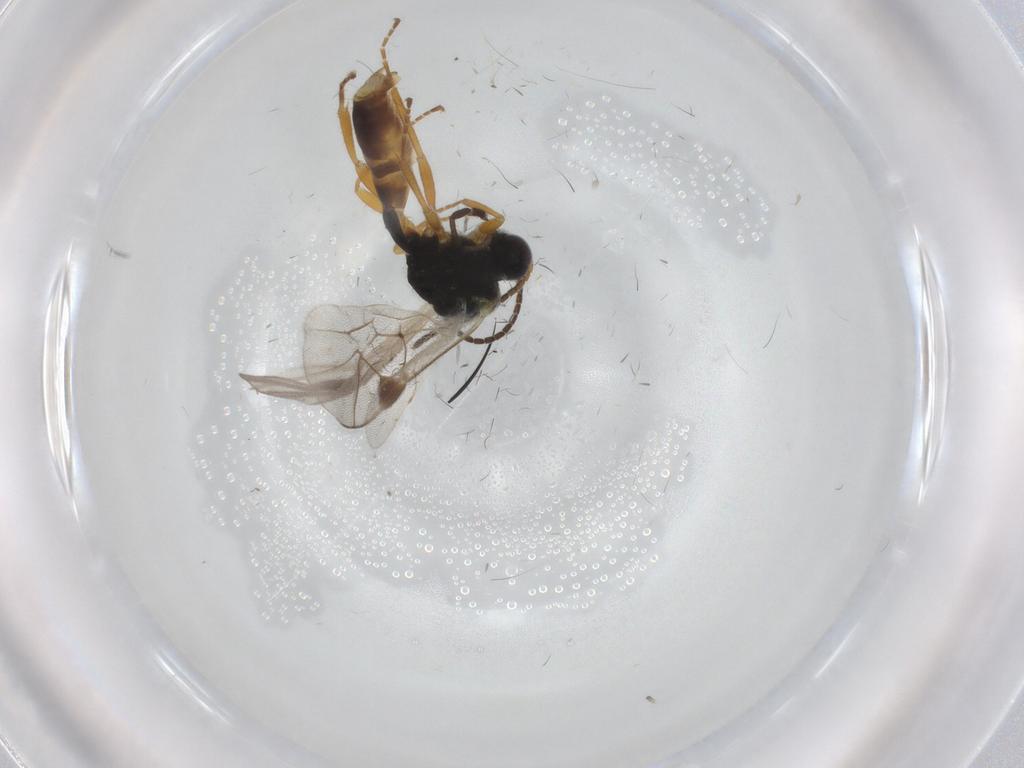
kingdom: Animalia
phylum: Arthropoda
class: Insecta
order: Hymenoptera
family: Ichneumonidae
